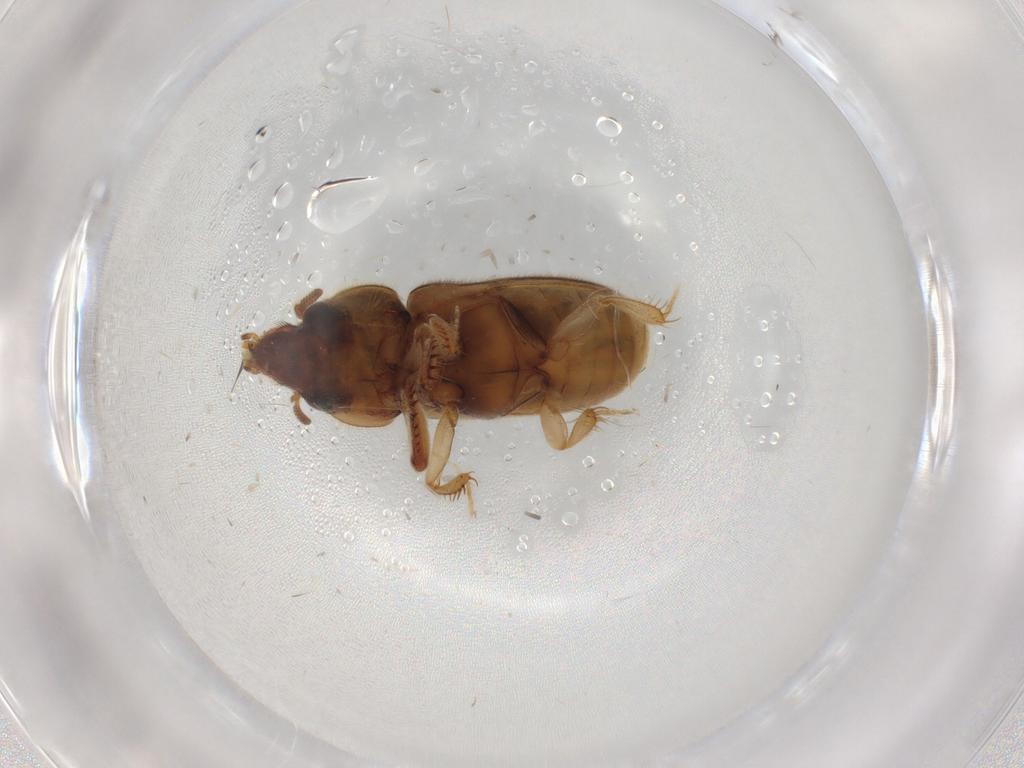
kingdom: Animalia
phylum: Arthropoda
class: Insecta
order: Coleoptera
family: Heteroceridae
